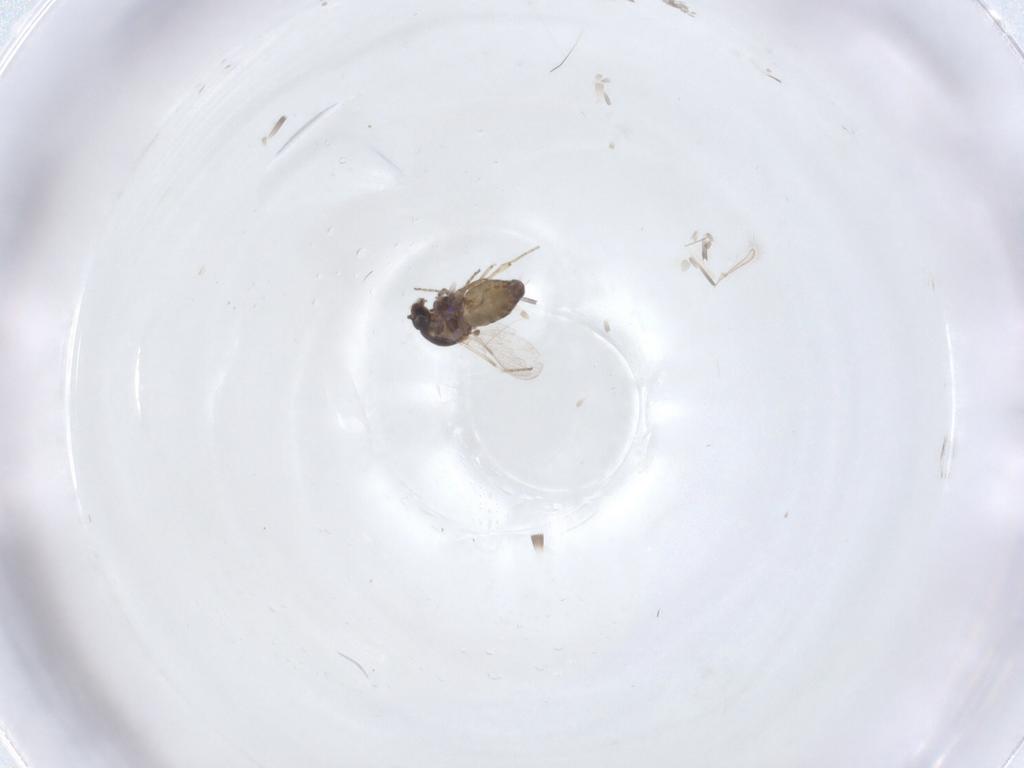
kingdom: Animalia
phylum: Arthropoda
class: Insecta
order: Diptera
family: Ceratopogonidae
